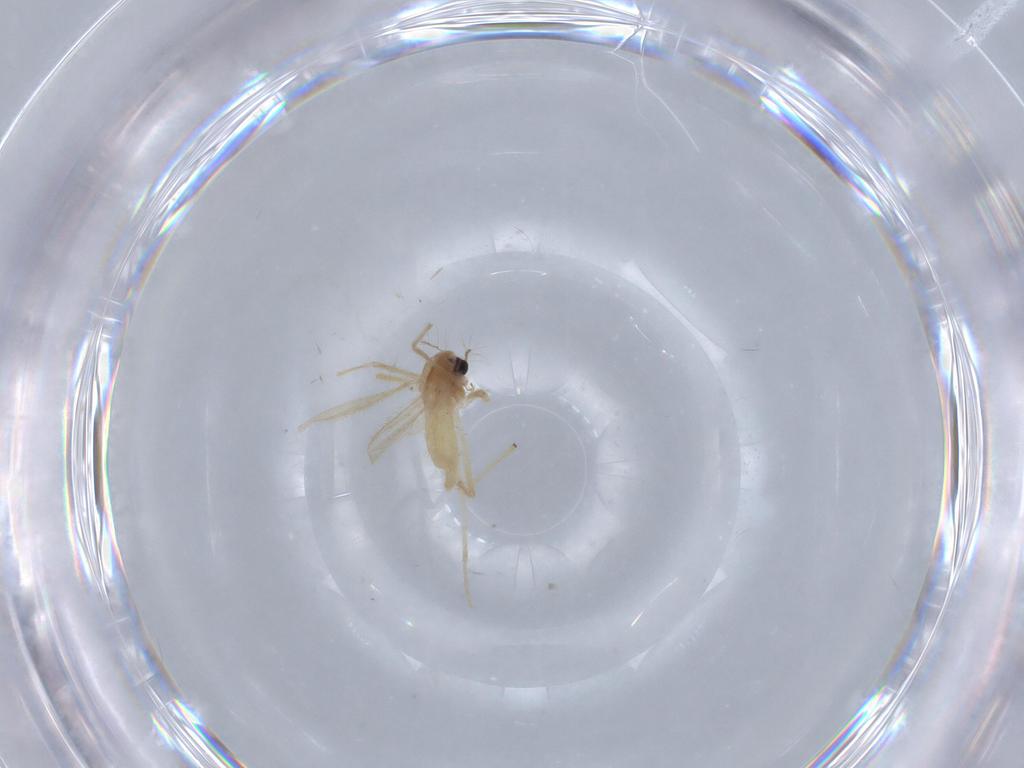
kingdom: Animalia
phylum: Arthropoda
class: Insecta
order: Diptera
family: Chironomidae
